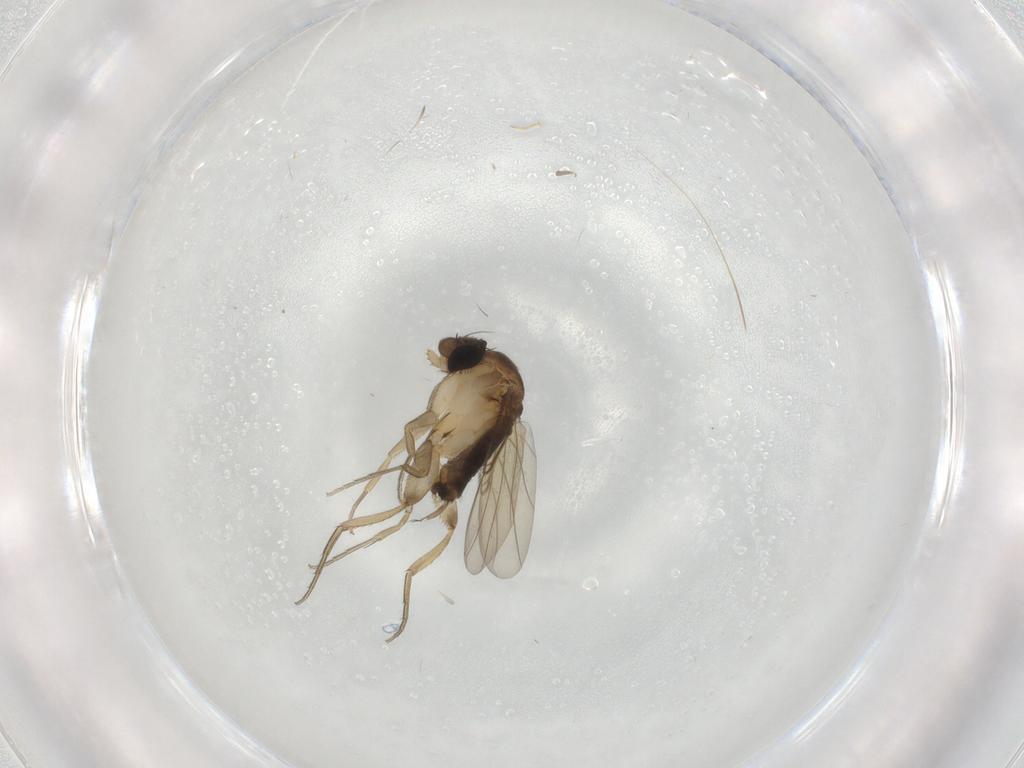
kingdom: Animalia
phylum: Arthropoda
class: Insecta
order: Diptera
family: Phoridae
